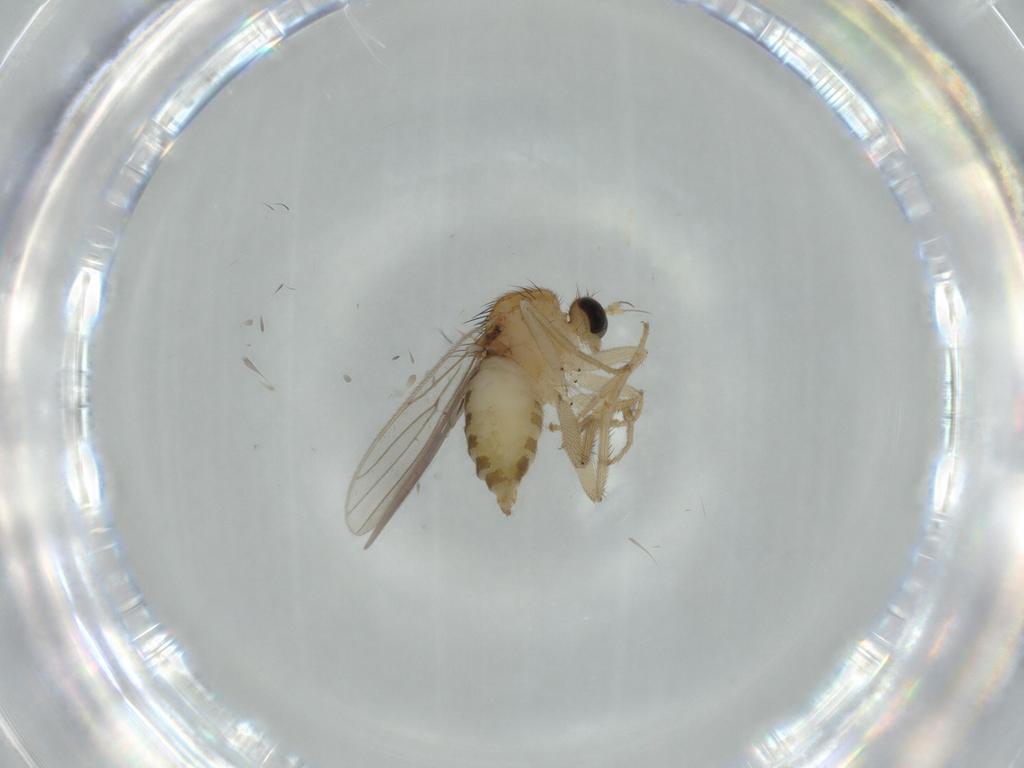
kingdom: Animalia
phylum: Arthropoda
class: Insecta
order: Diptera
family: Hybotidae
